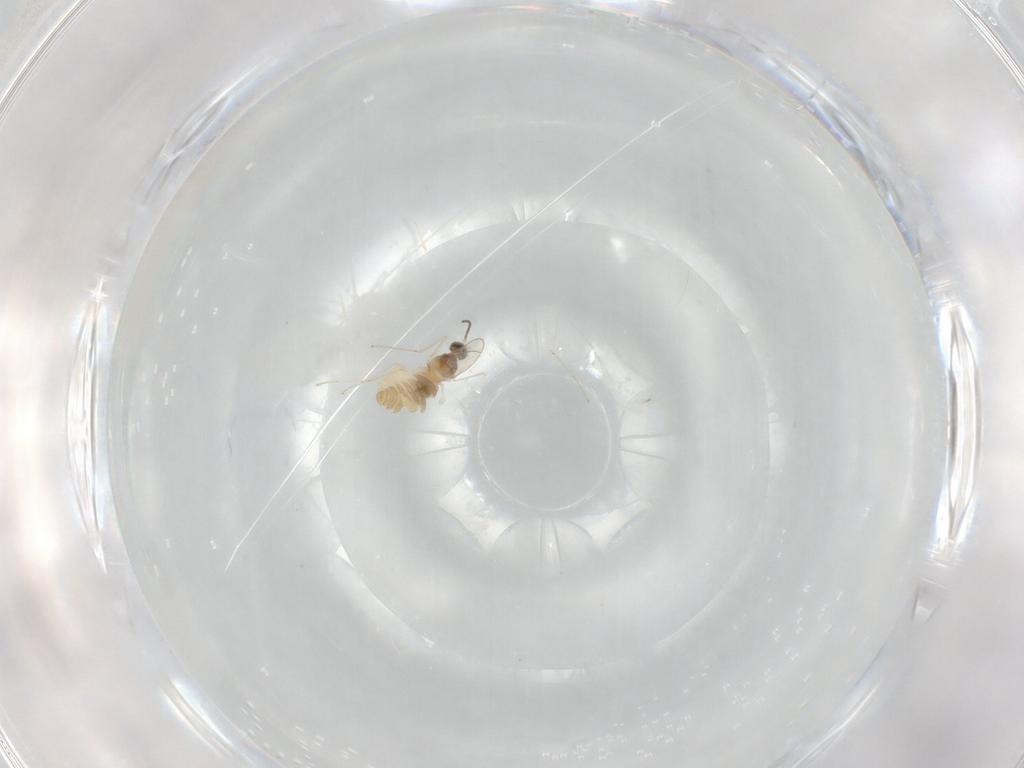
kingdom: Animalia
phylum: Arthropoda
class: Insecta
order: Diptera
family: Cecidomyiidae
